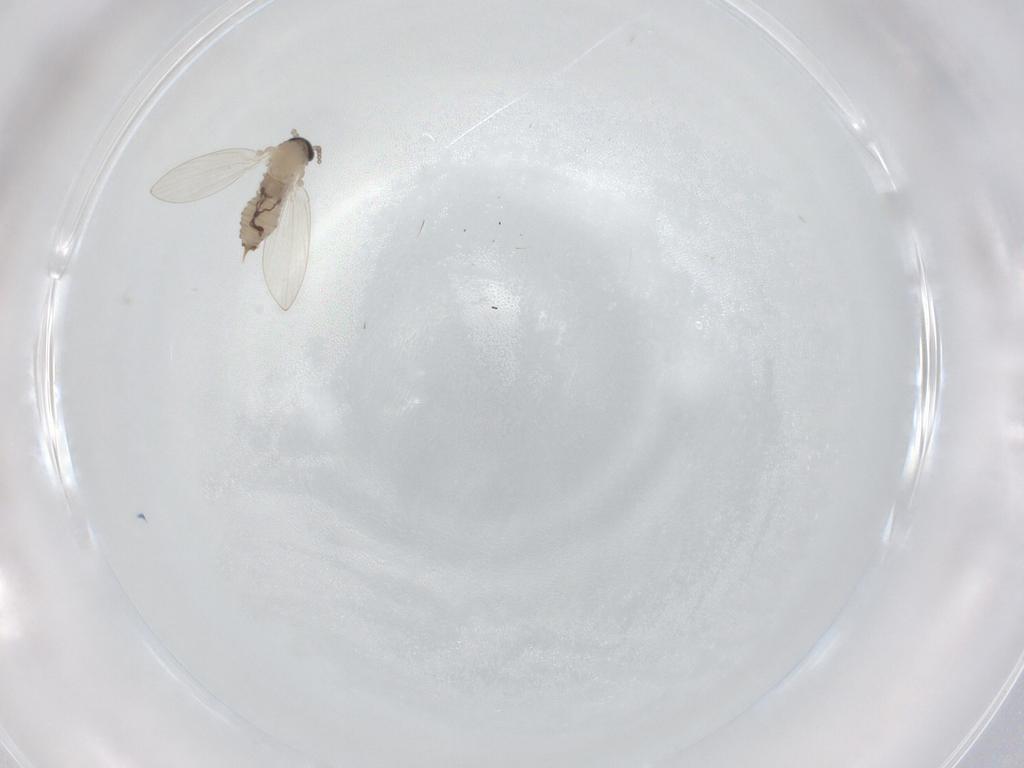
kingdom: Animalia
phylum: Arthropoda
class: Insecta
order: Diptera
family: Psychodidae
